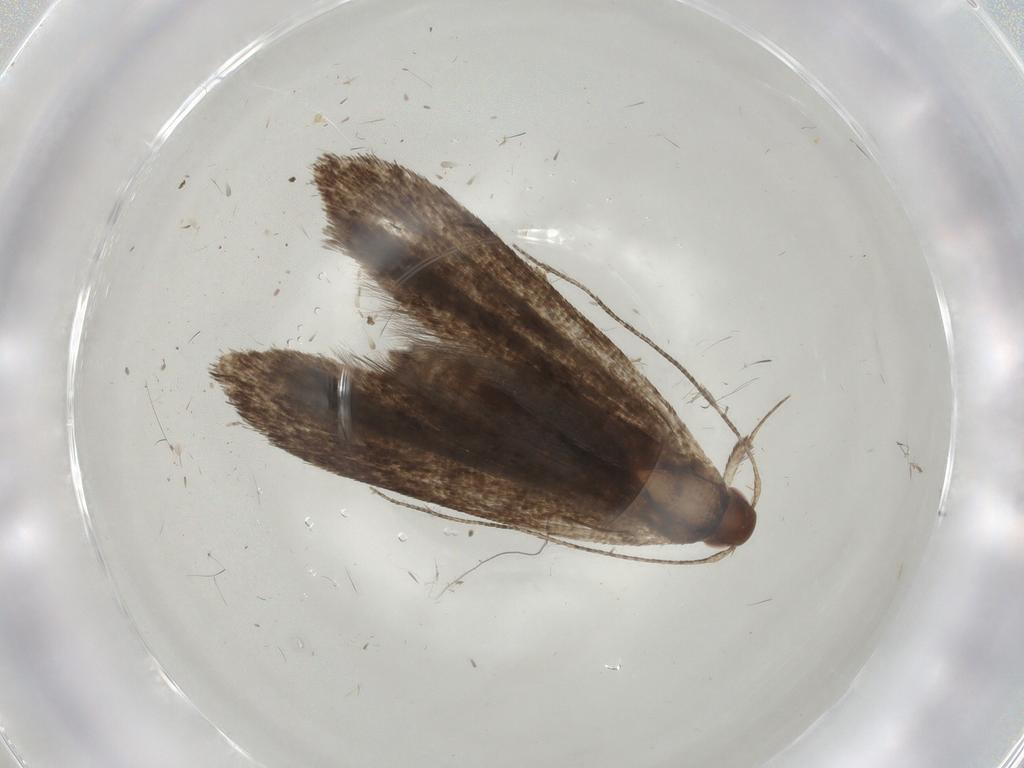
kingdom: Animalia
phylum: Arthropoda
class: Insecta
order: Lepidoptera
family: Gelechiidae
